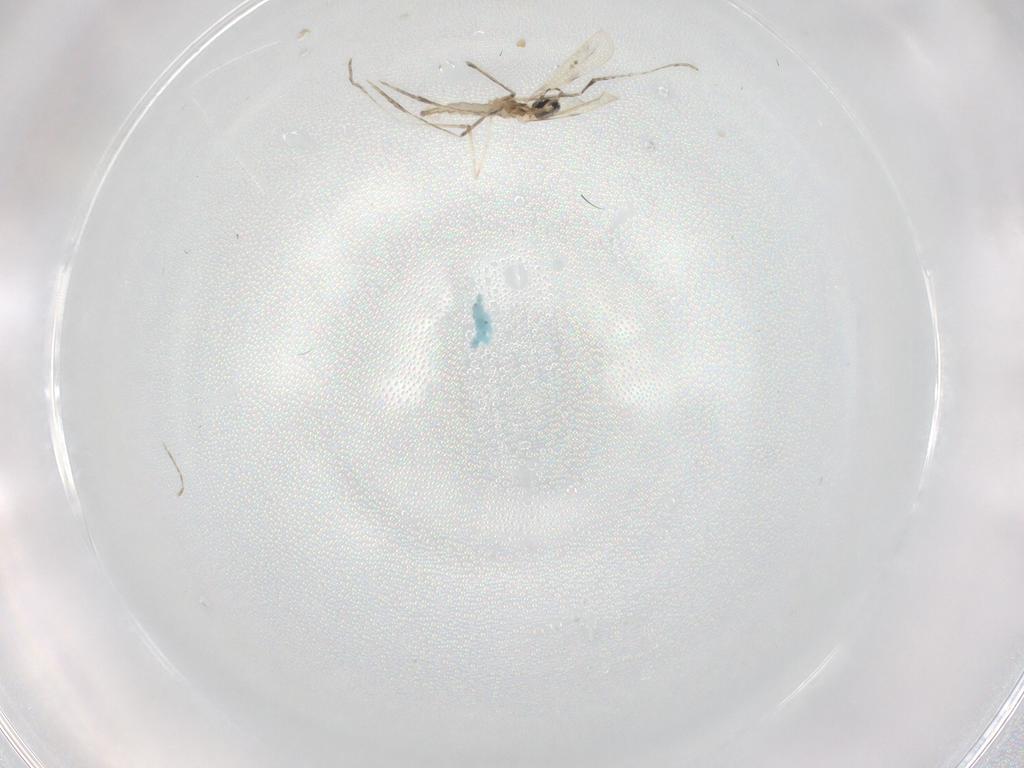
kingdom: Animalia
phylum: Arthropoda
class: Insecta
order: Diptera
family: Cecidomyiidae
